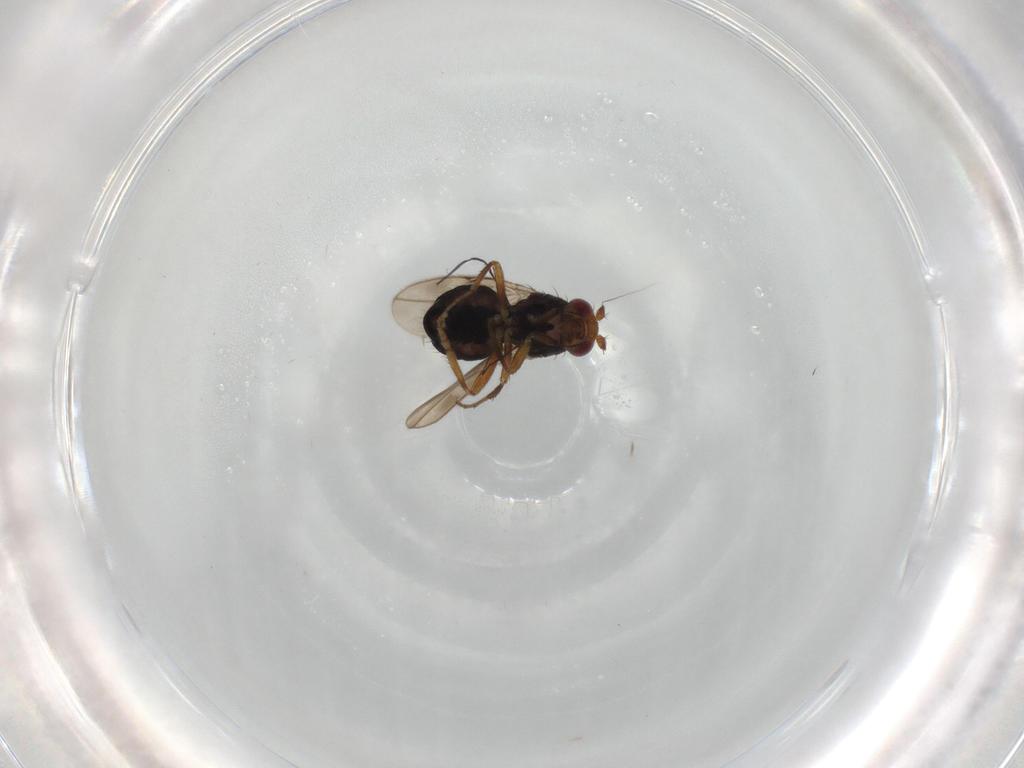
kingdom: Animalia
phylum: Arthropoda
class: Insecta
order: Diptera
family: Sphaeroceridae
